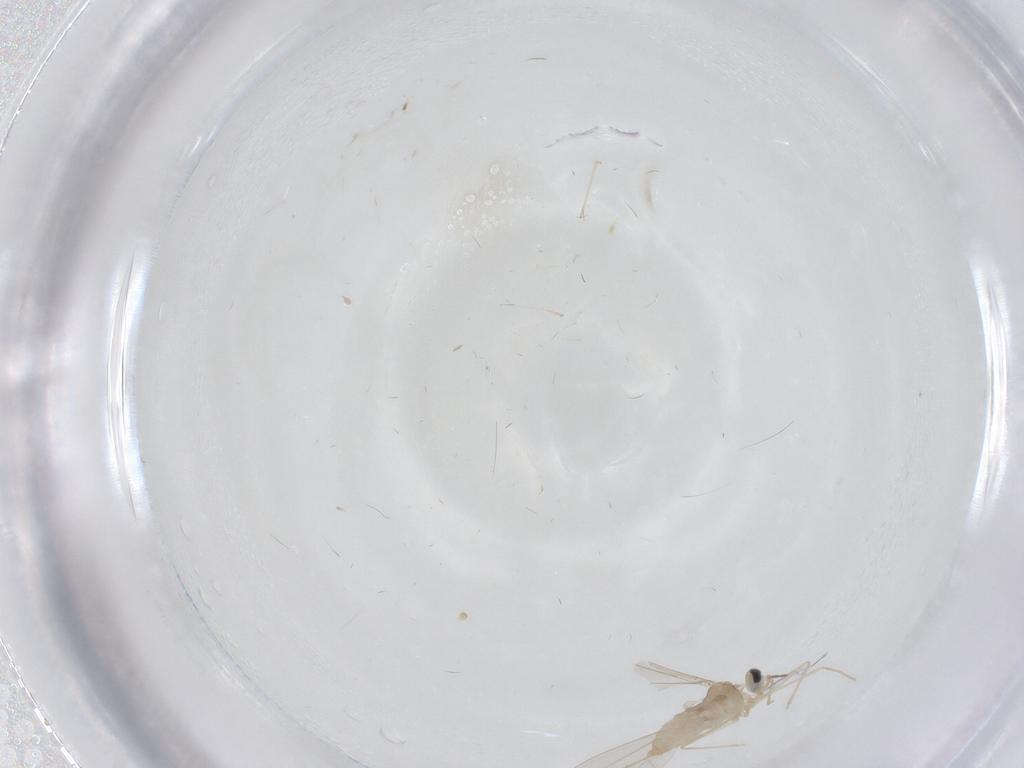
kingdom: Animalia
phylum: Arthropoda
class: Insecta
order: Diptera
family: Cecidomyiidae
